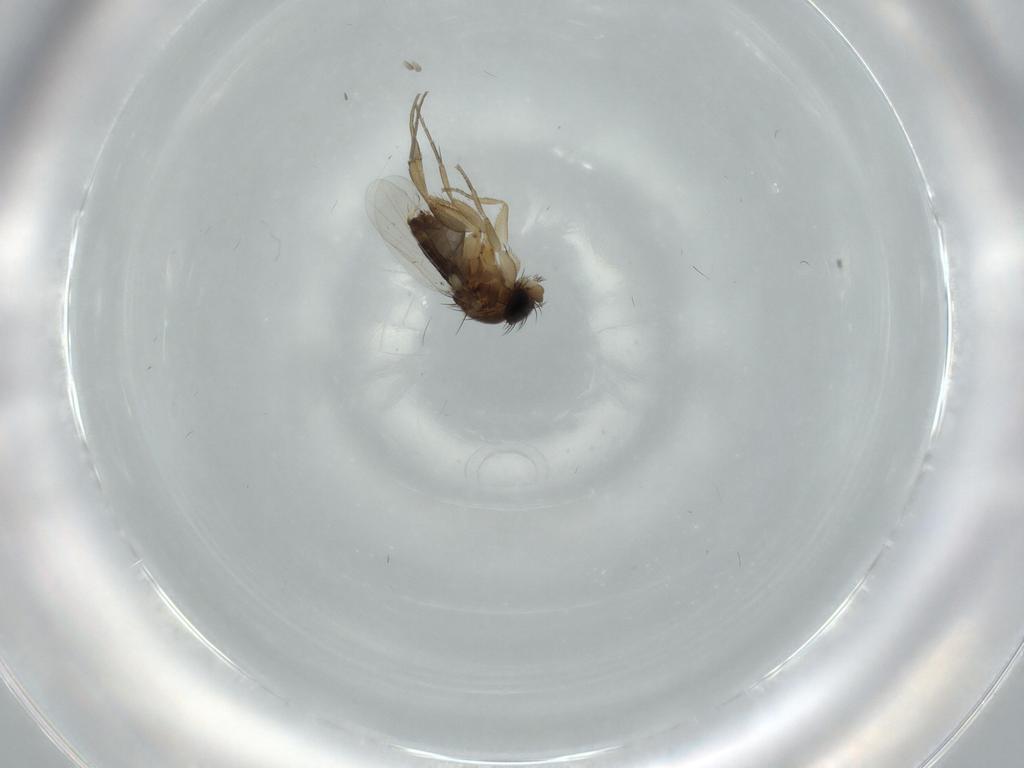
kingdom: Animalia
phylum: Arthropoda
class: Insecta
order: Diptera
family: Phoridae
